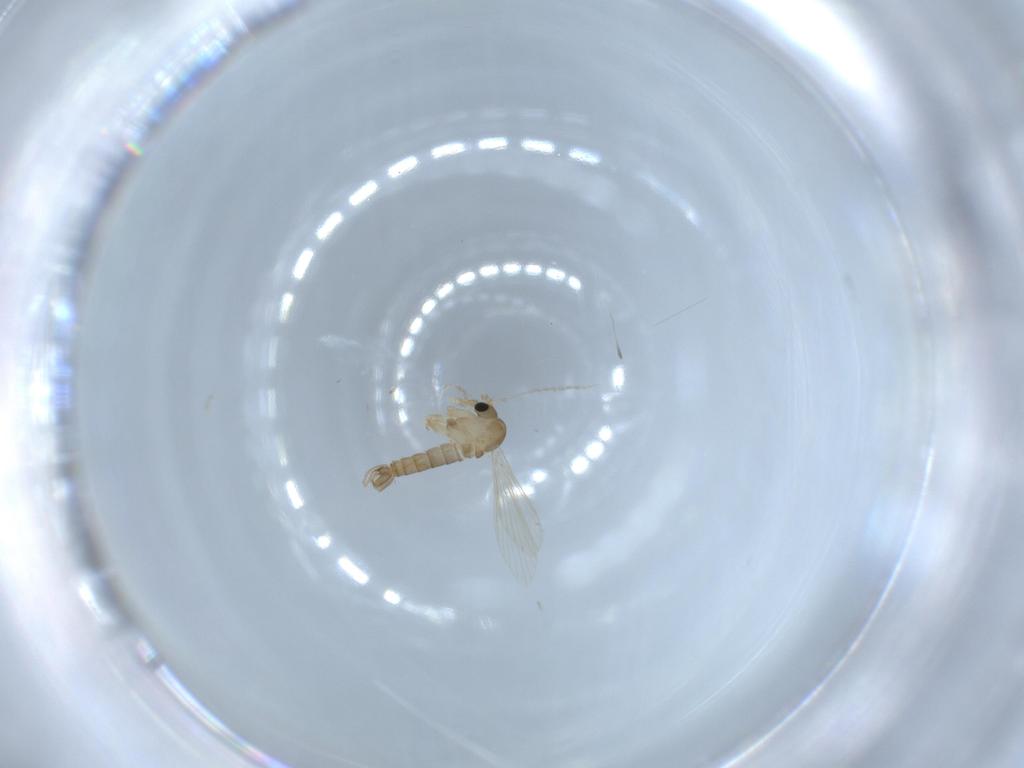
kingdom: Animalia
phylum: Arthropoda
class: Insecta
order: Diptera
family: Psychodidae
